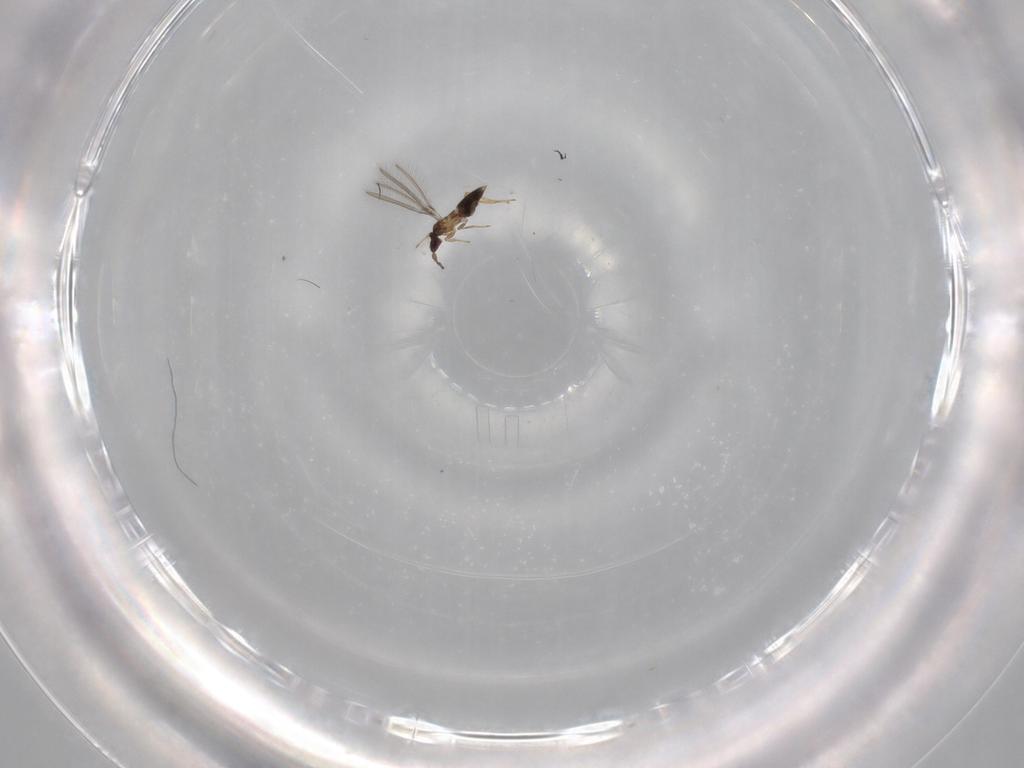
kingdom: Animalia
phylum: Arthropoda
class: Insecta
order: Hymenoptera
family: Mymaridae
